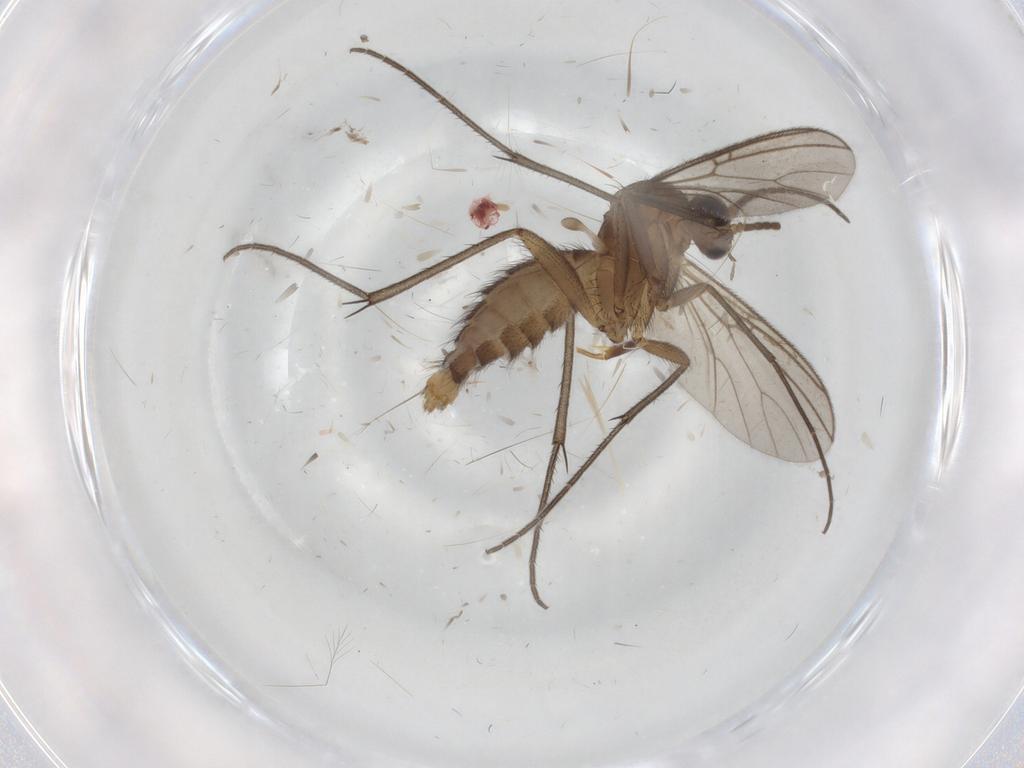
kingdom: Animalia
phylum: Arthropoda
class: Insecta
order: Diptera
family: Mycetophilidae
